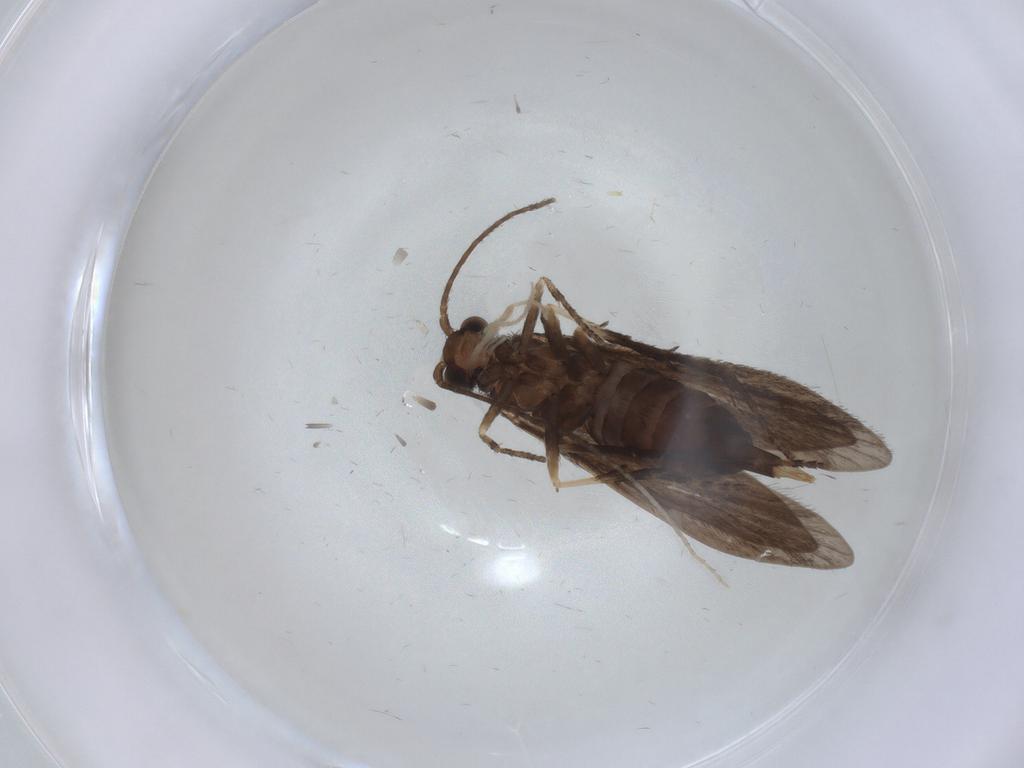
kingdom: Animalia
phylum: Arthropoda
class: Insecta
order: Trichoptera
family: Xiphocentronidae
